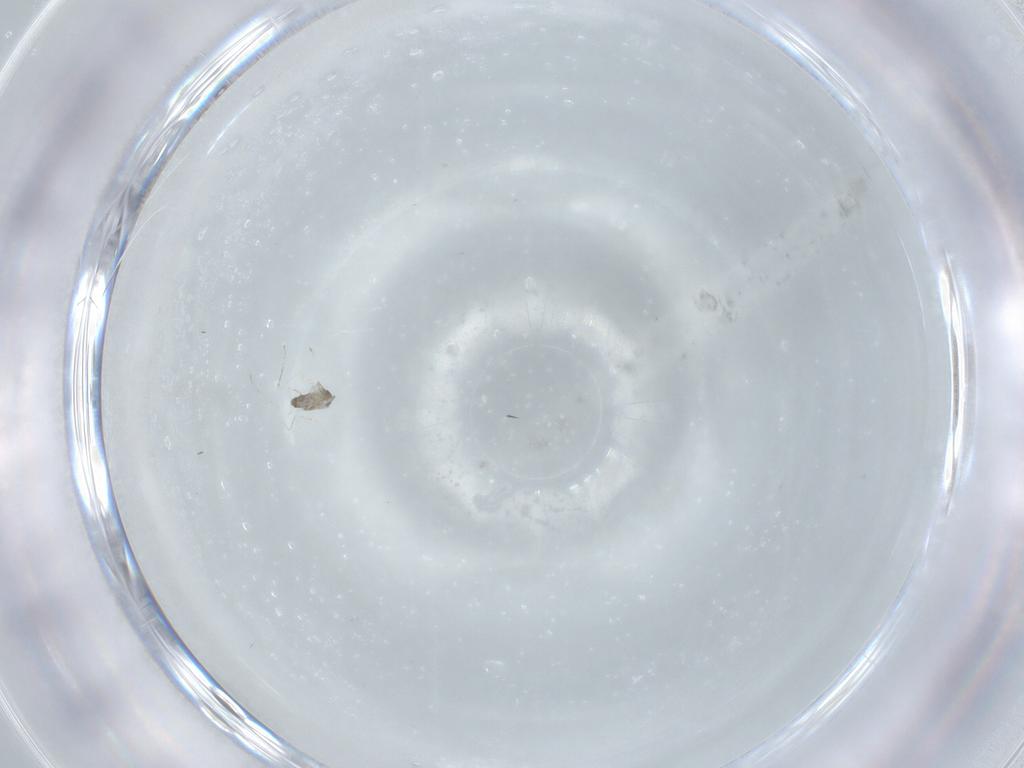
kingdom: Animalia
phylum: Arthropoda
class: Insecta
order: Diptera
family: Cecidomyiidae
